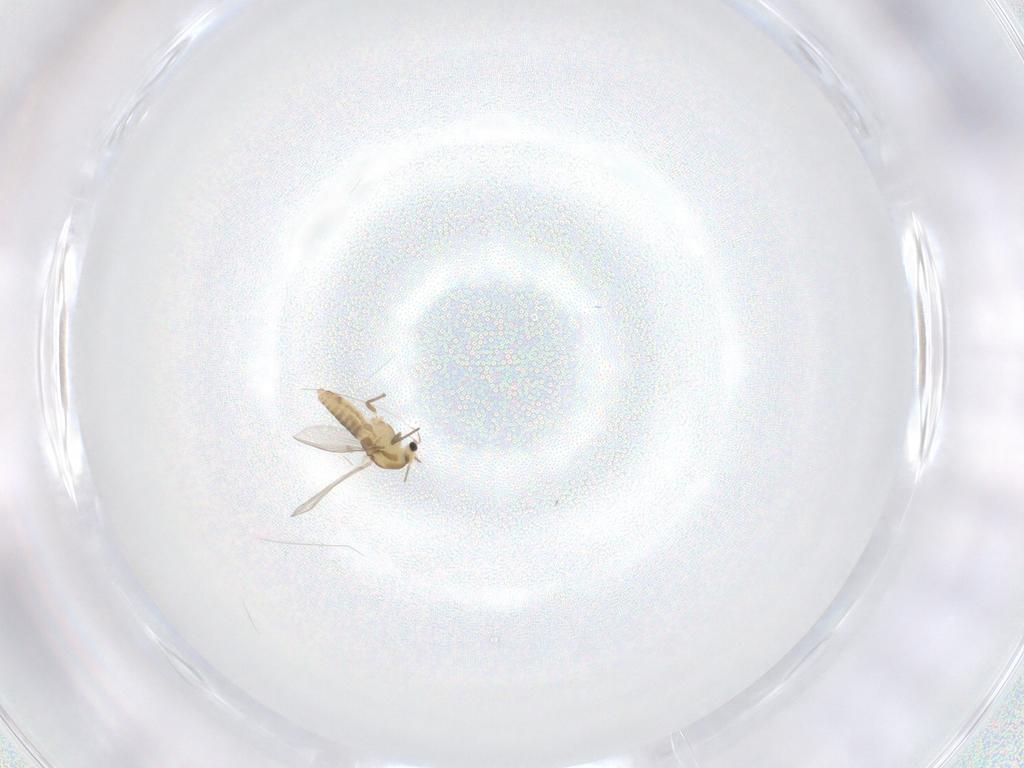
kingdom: Animalia
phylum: Arthropoda
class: Insecta
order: Diptera
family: Chironomidae
